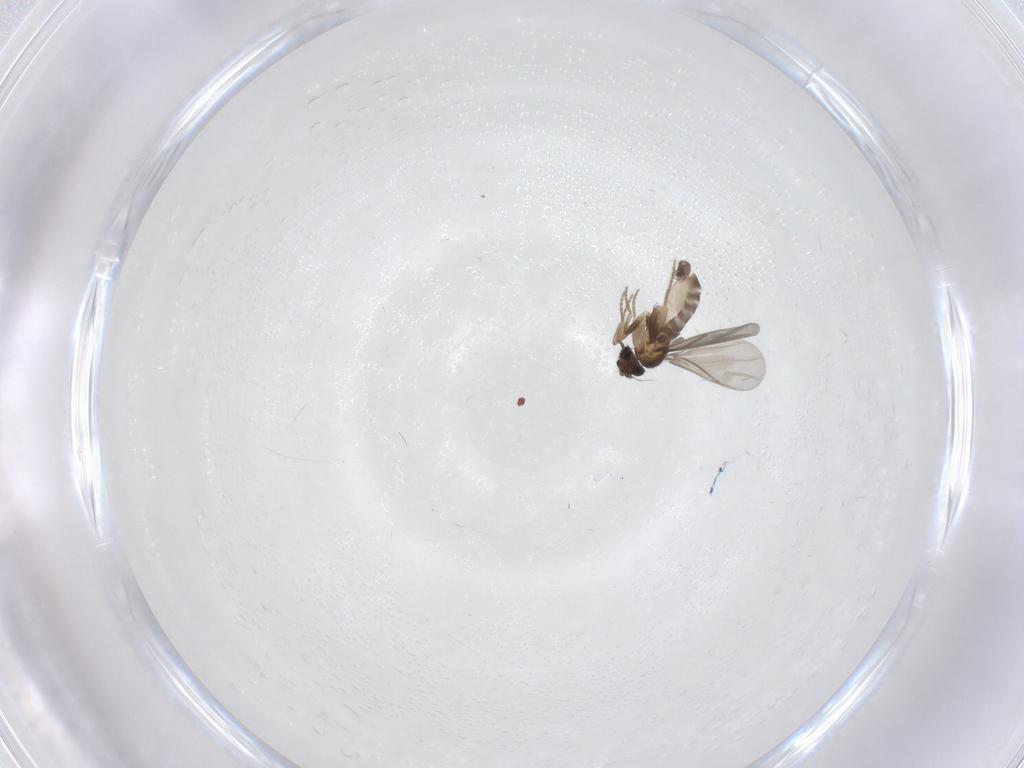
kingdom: Animalia
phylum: Arthropoda
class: Insecta
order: Diptera
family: Sciaridae
